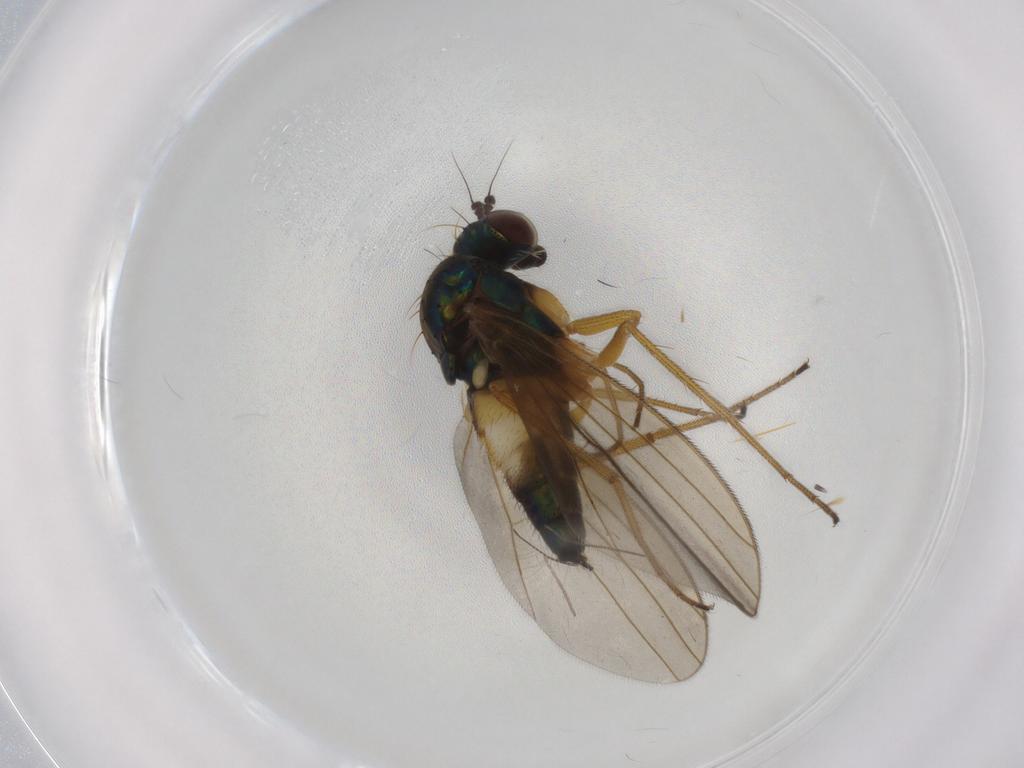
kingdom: Animalia
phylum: Arthropoda
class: Insecta
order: Diptera
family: Dolichopodidae
